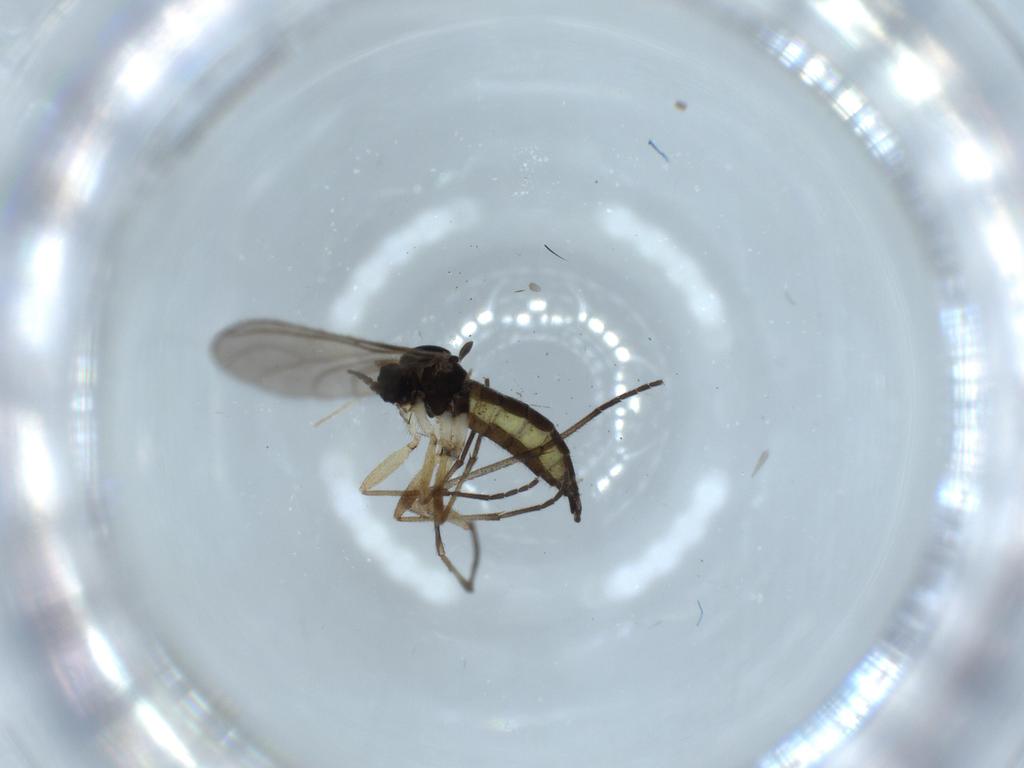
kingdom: Animalia
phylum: Arthropoda
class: Insecta
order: Diptera
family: Sciaridae
